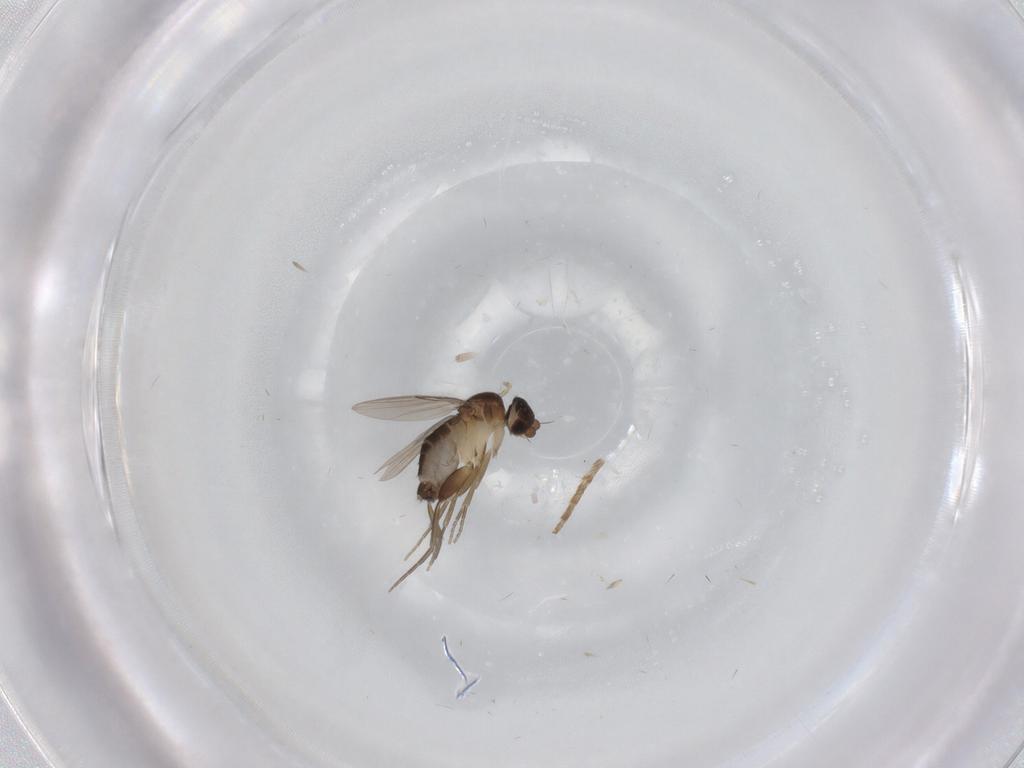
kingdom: Animalia
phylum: Arthropoda
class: Insecta
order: Diptera
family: Phoridae
